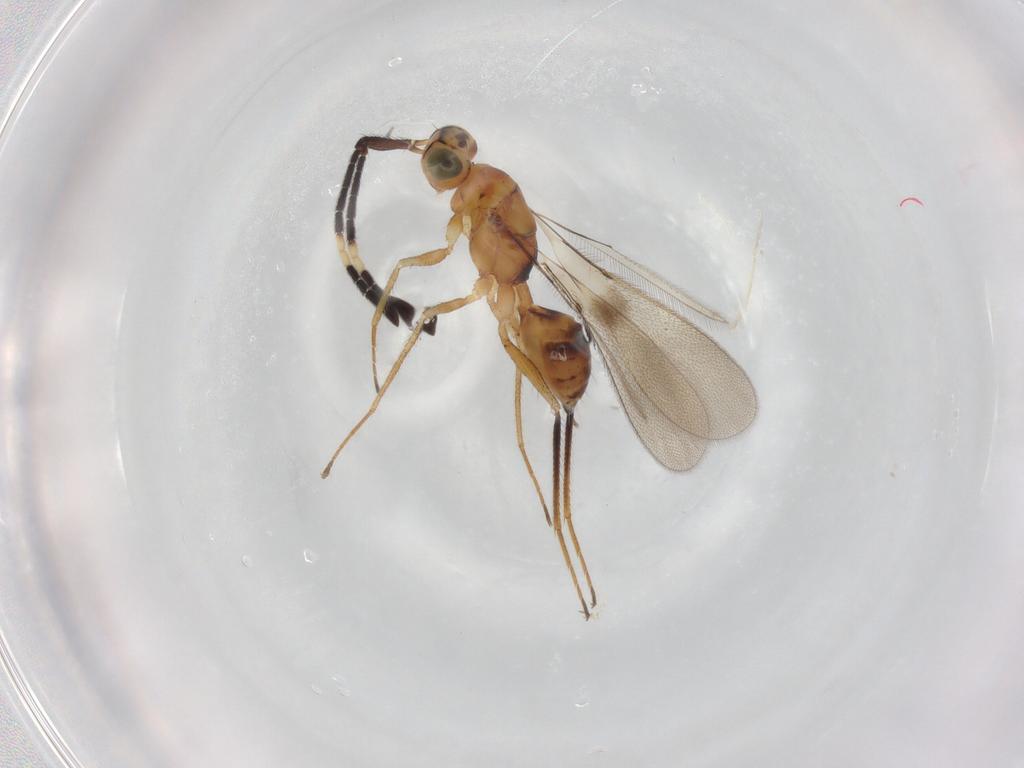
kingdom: Animalia
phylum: Arthropoda
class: Insecta
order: Hymenoptera
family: Mymaridae
